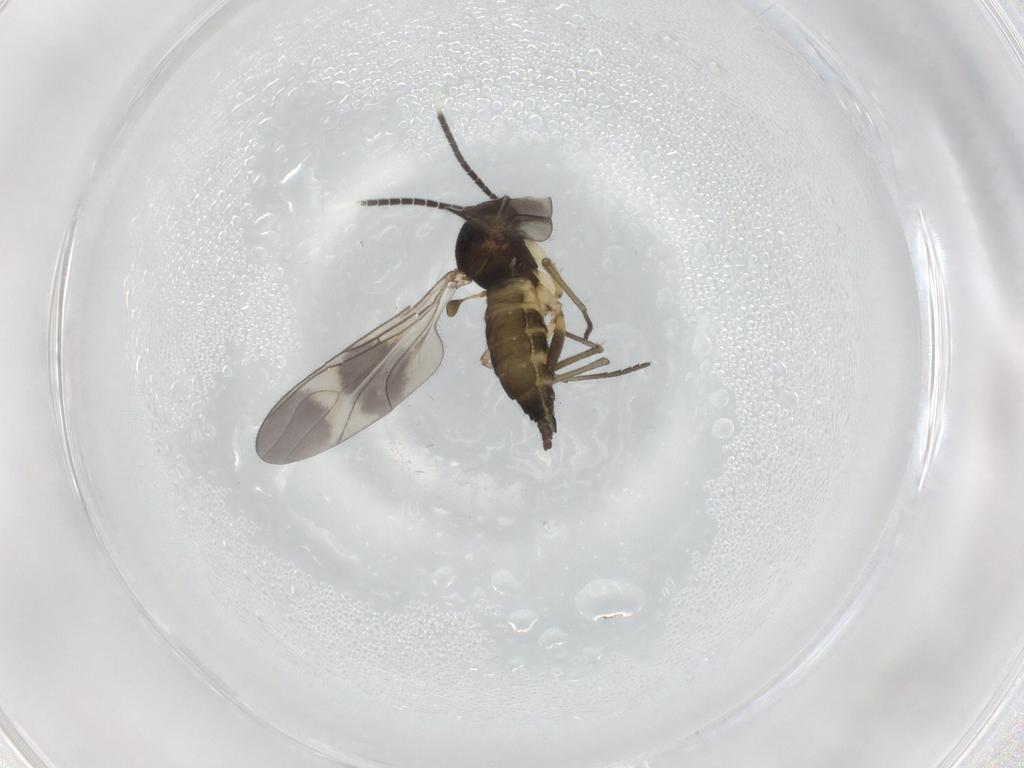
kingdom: Animalia
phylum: Arthropoda
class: Insecta
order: Diptera
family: Sciaridae
